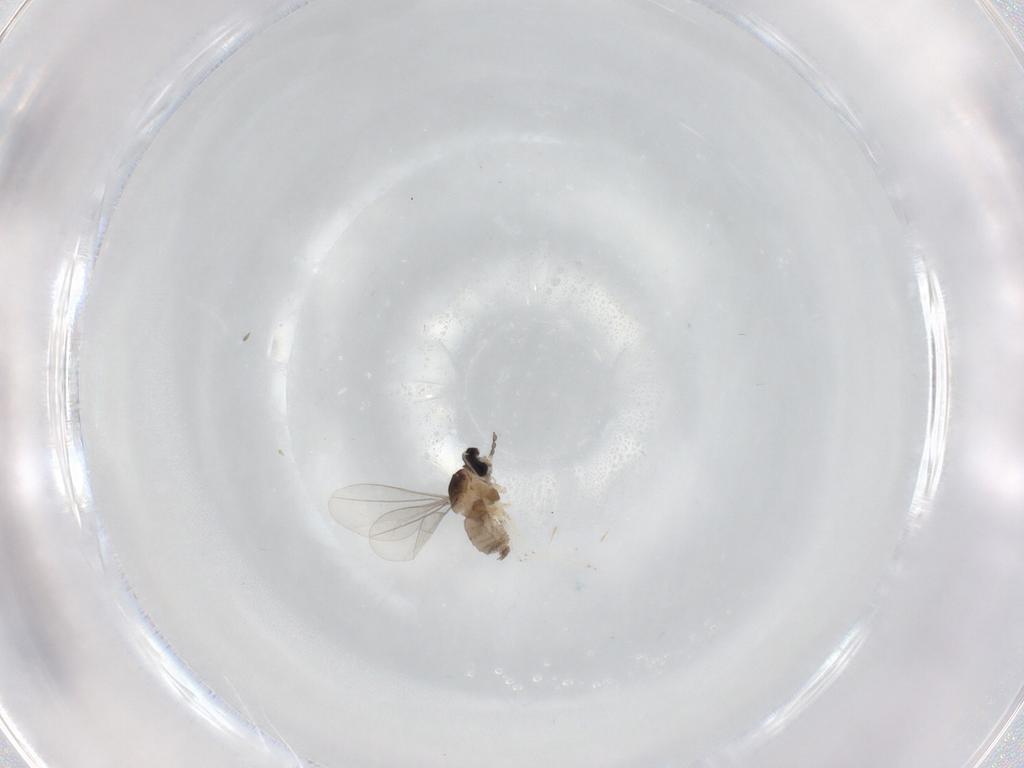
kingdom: Animalia
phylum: Arthropoda
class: Insecta
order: Diptera
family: Cecidomyiidae
